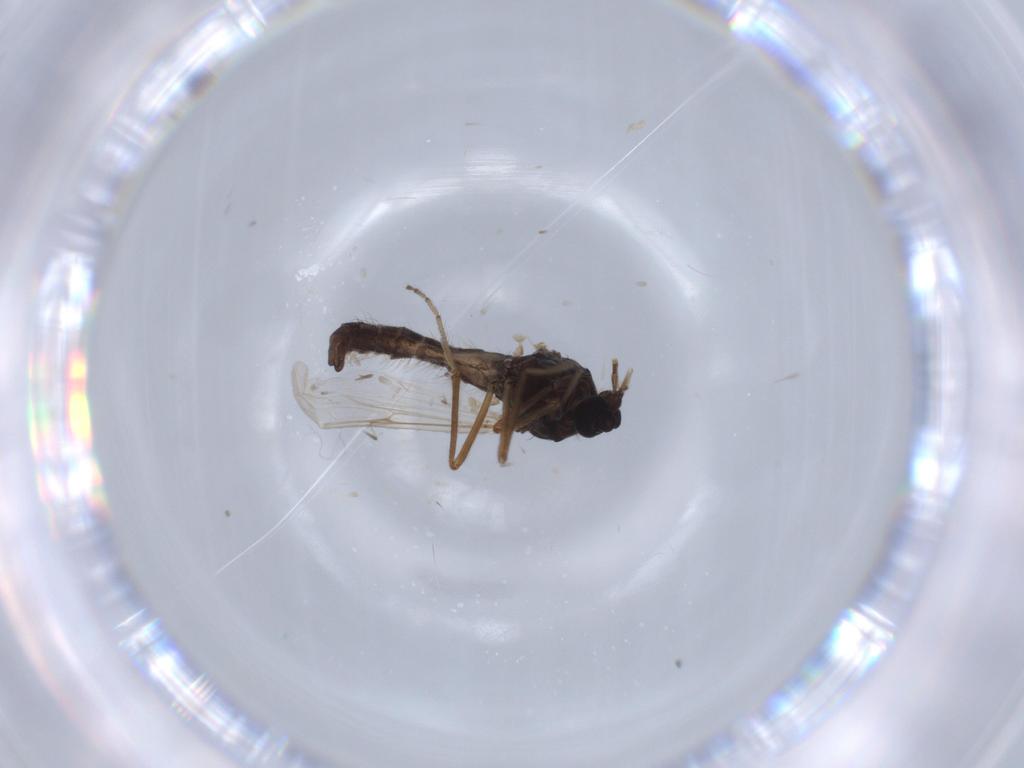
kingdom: Animalia
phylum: Arthropoda
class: Insecta
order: Diptera
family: Ceratopogonidae
